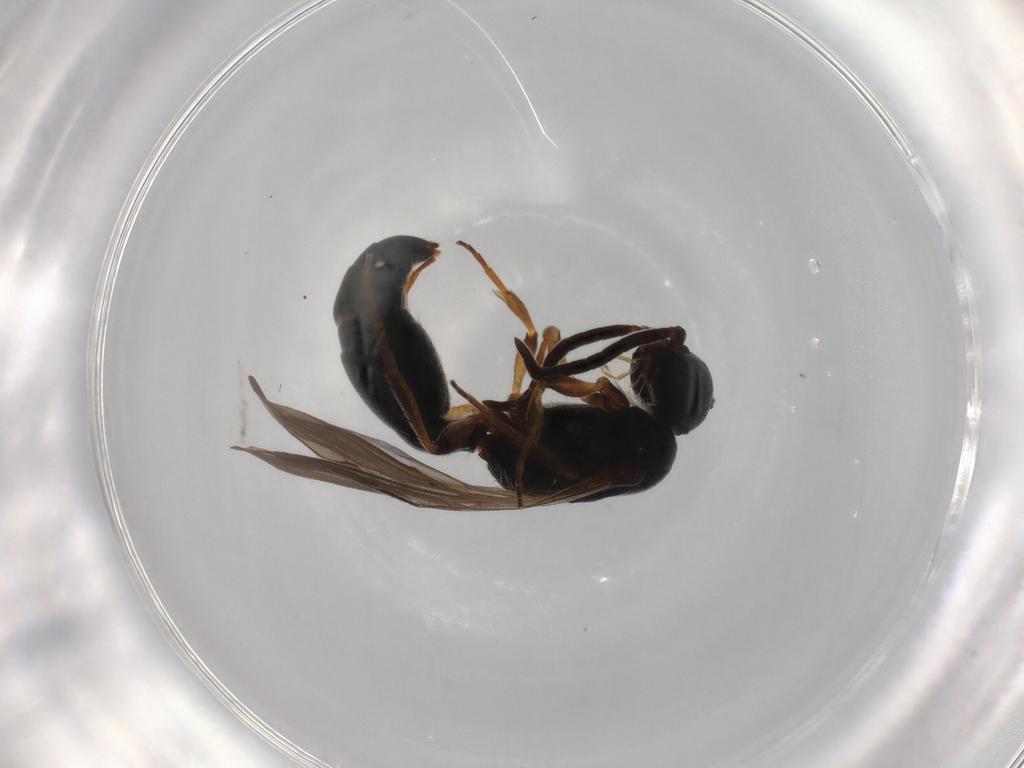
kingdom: Animalia
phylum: Arthropoda
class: Insecta
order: Hymenoptera
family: Mutillidae
